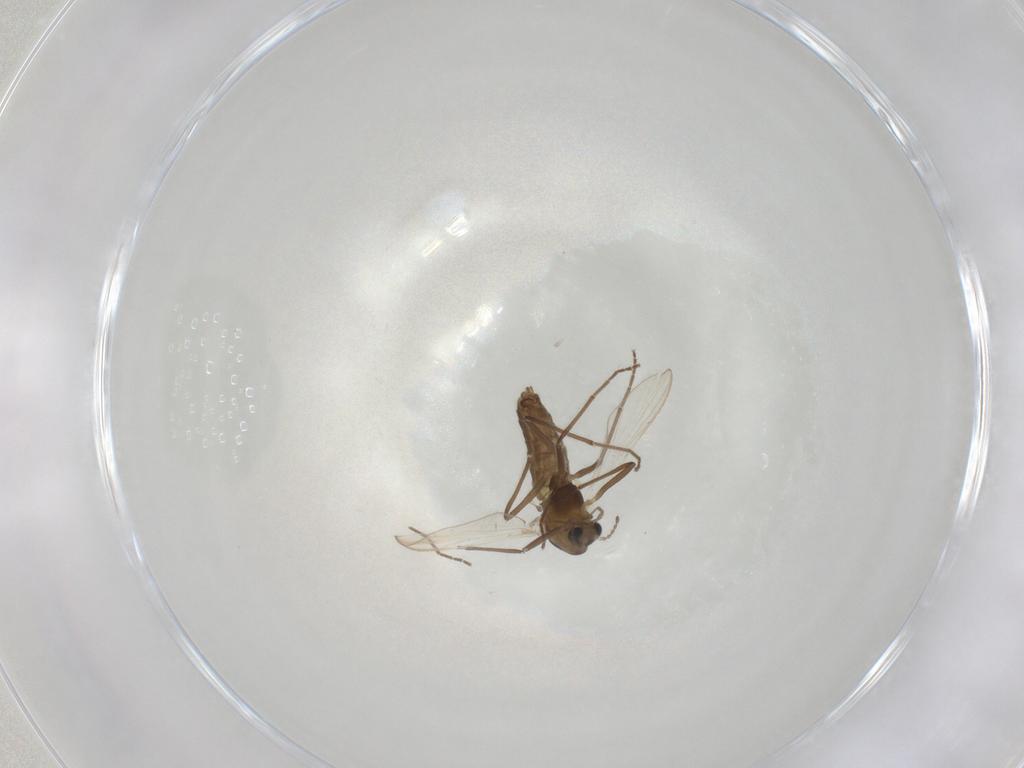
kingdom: Animalia
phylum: Arthropoda
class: Insecta
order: Diptera
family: Chironomidae
